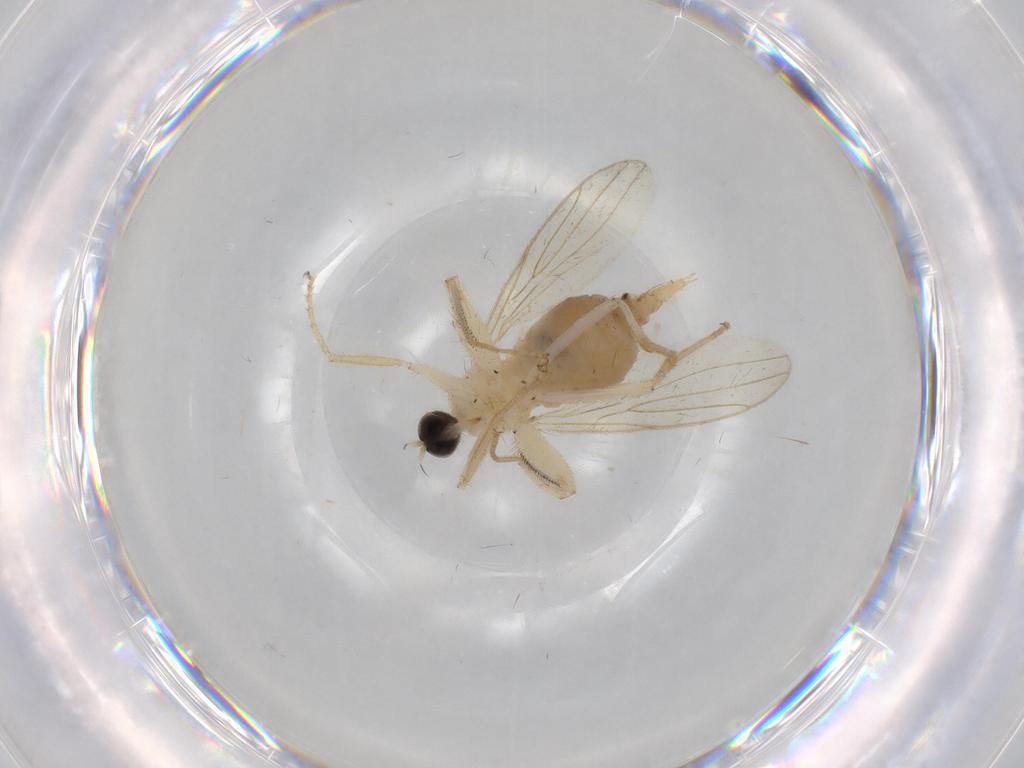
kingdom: Animalia
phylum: Arthropoda
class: Insecta
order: Diptera
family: Hybotidae
